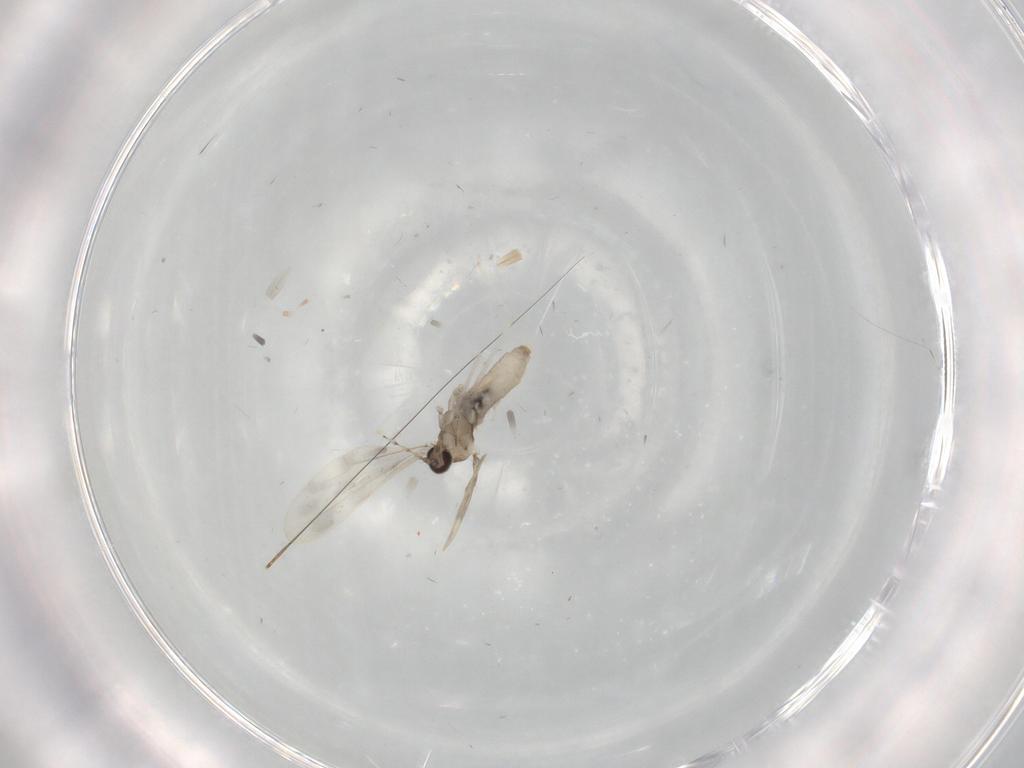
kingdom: Animalia
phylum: Arthropoda
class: Insecta
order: Diptera
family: Cecidomyiidae
